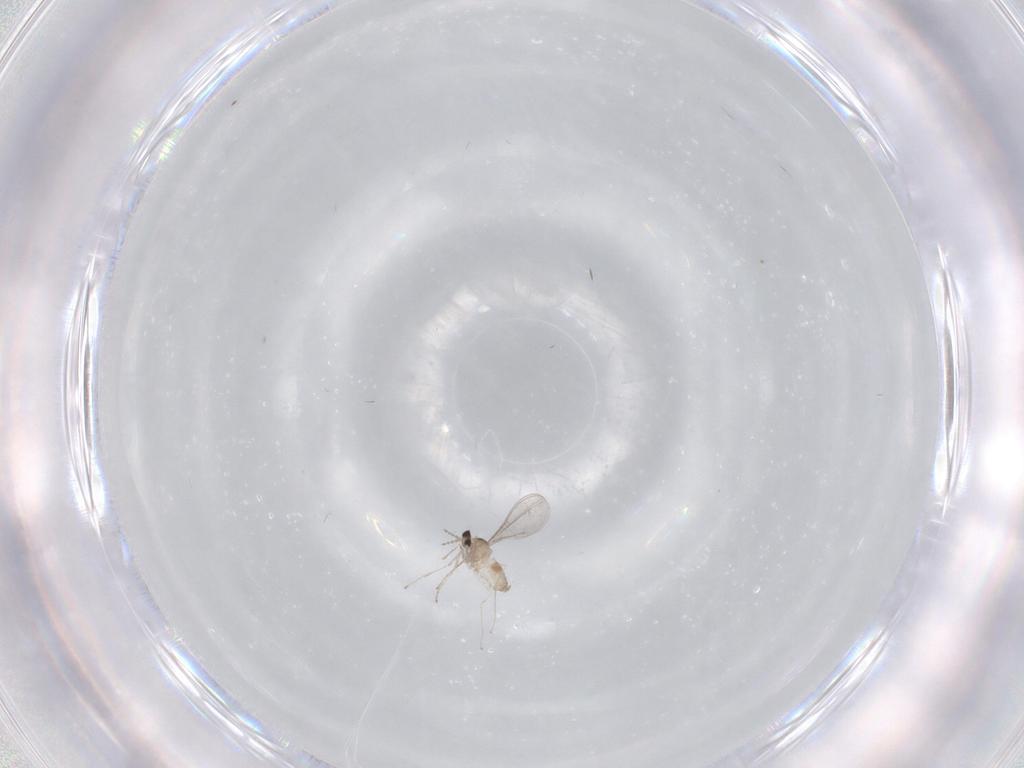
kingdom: Animalia
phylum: Arthropoda
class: Insecta
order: Diptera
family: Cecidomyiidae
